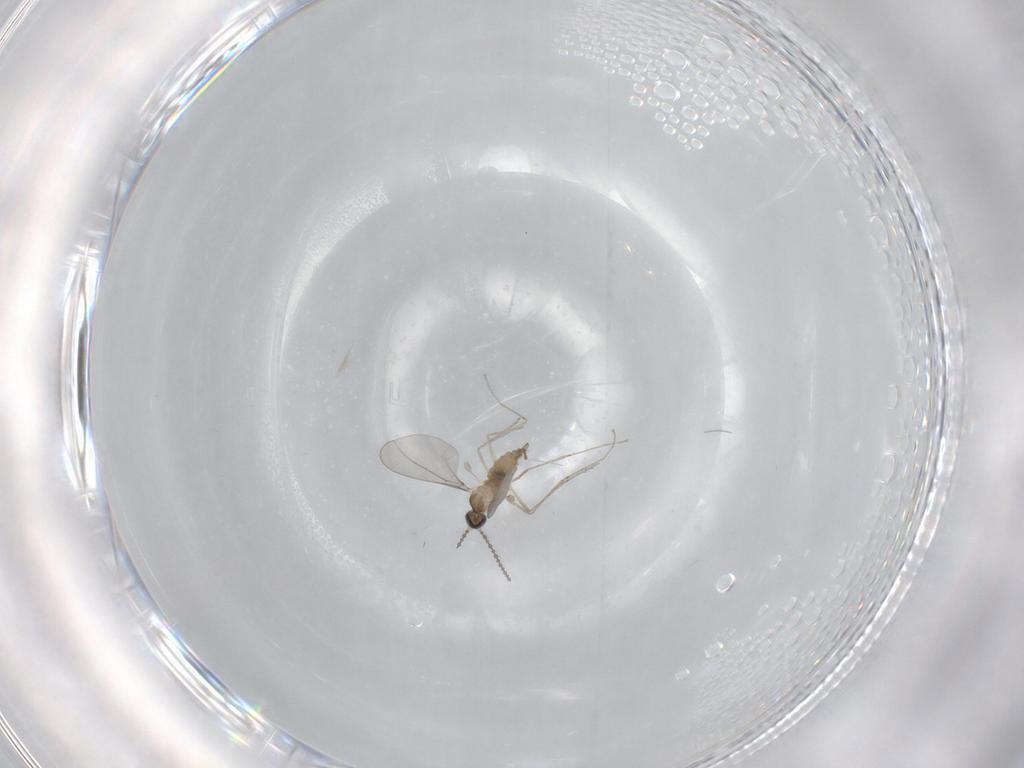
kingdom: Animalia
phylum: Arthropoda
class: Insecta
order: Diptera
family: Cecidomyiidae
